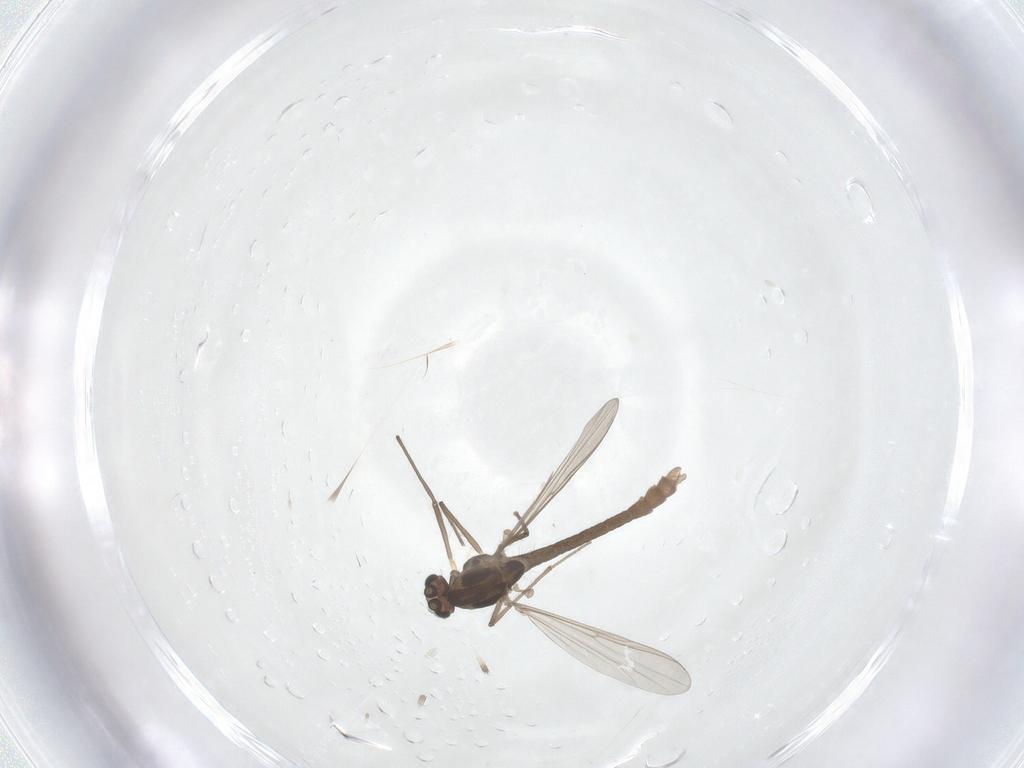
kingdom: Animalia
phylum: Arthropoda
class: Insecta
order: Diptera
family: Chironomidae
